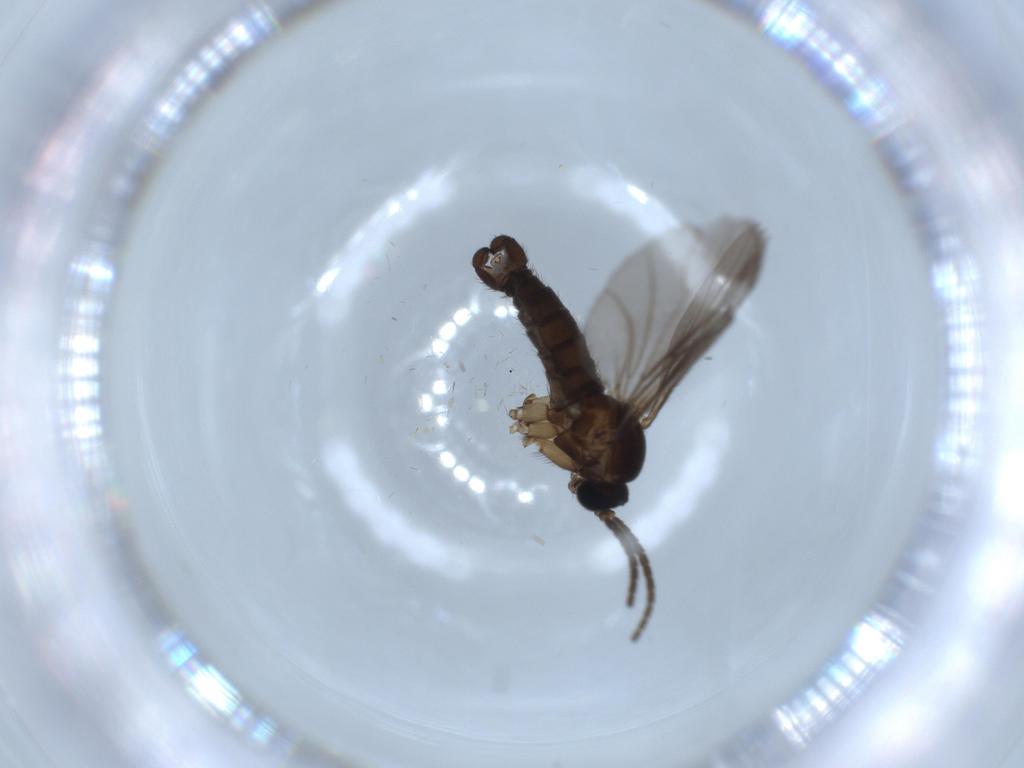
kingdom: Animalia
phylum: Arthropoda
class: Insecta
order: Diptera
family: Sciaridae
